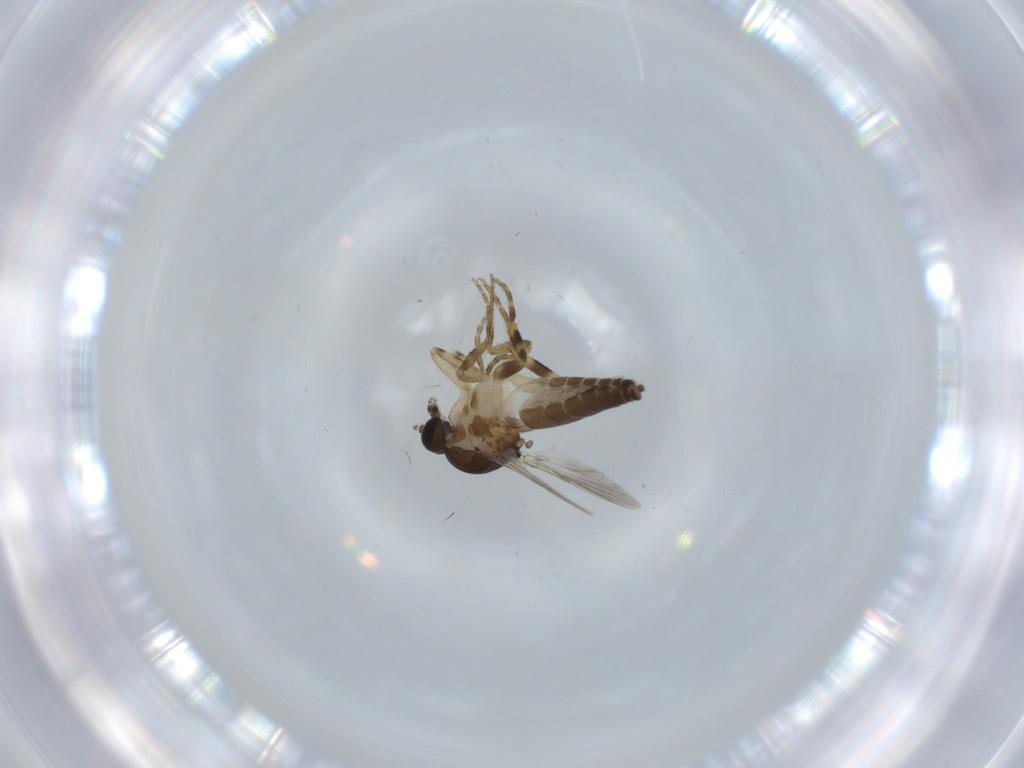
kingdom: Animalia
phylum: Arthropoda
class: Insecta
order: Diptera
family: Ceratopogonidae
